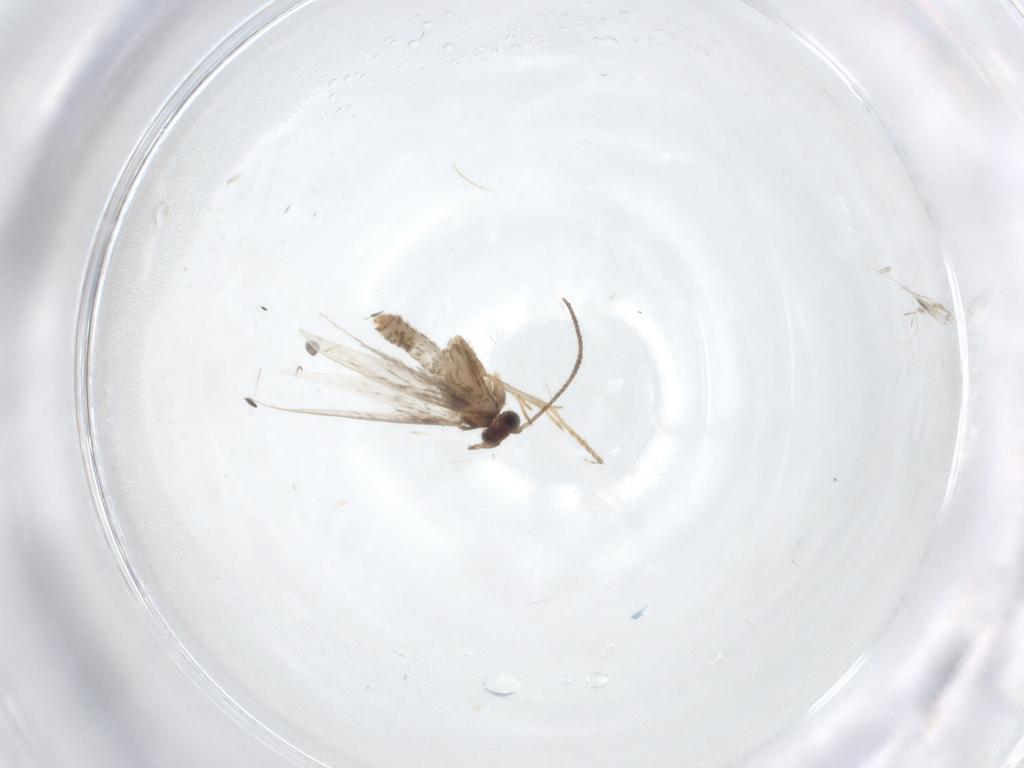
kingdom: Animalia
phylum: Arthropoda
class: Insecta
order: Lepidoptera
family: Nepticulidae
